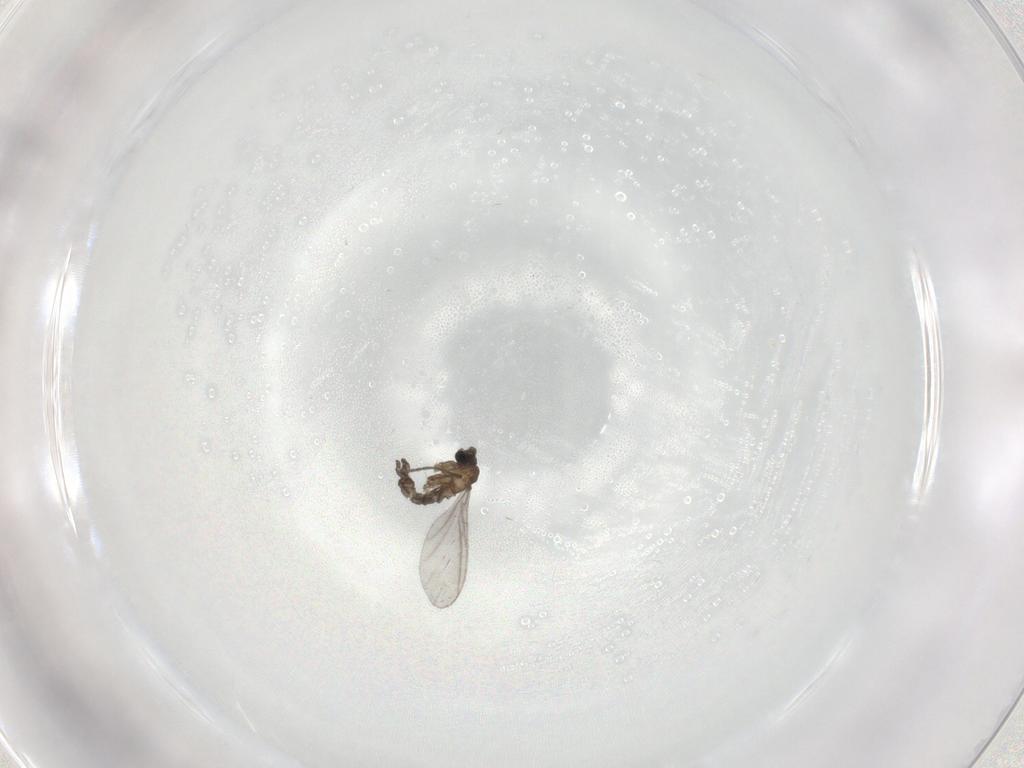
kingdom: Animalia
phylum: Arthropoda
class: Insecta
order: Diptera
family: Sciaridae
